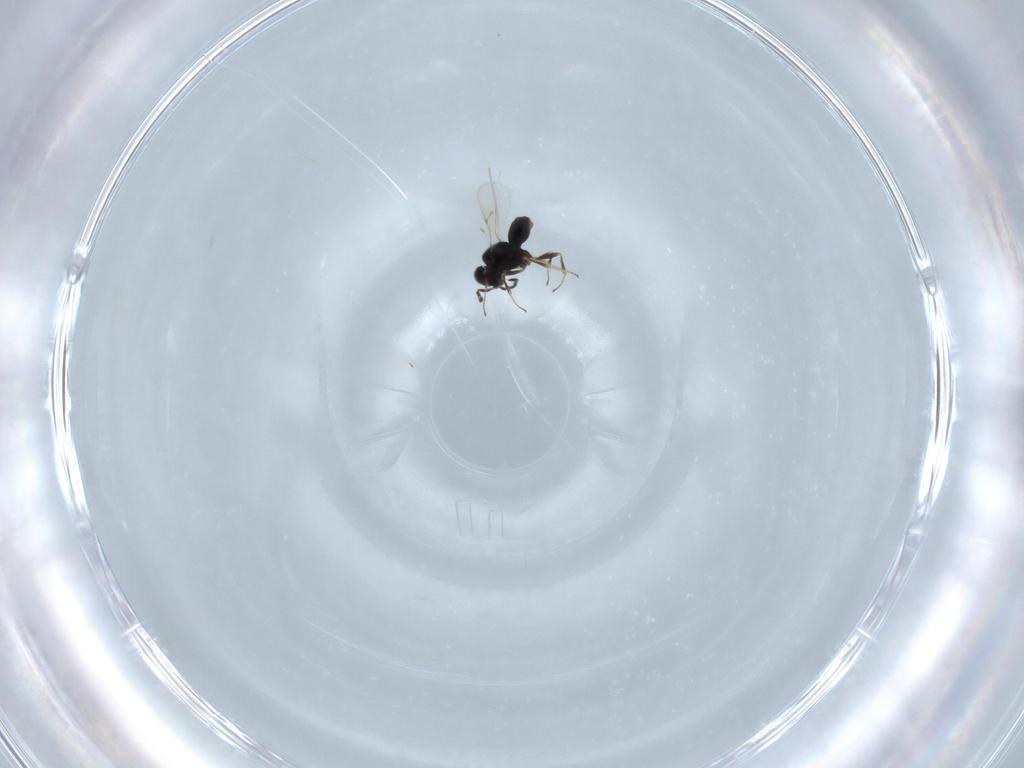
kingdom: Animalia
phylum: Arthropoda
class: Insecta
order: Hymenoptera
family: Scelionidae
